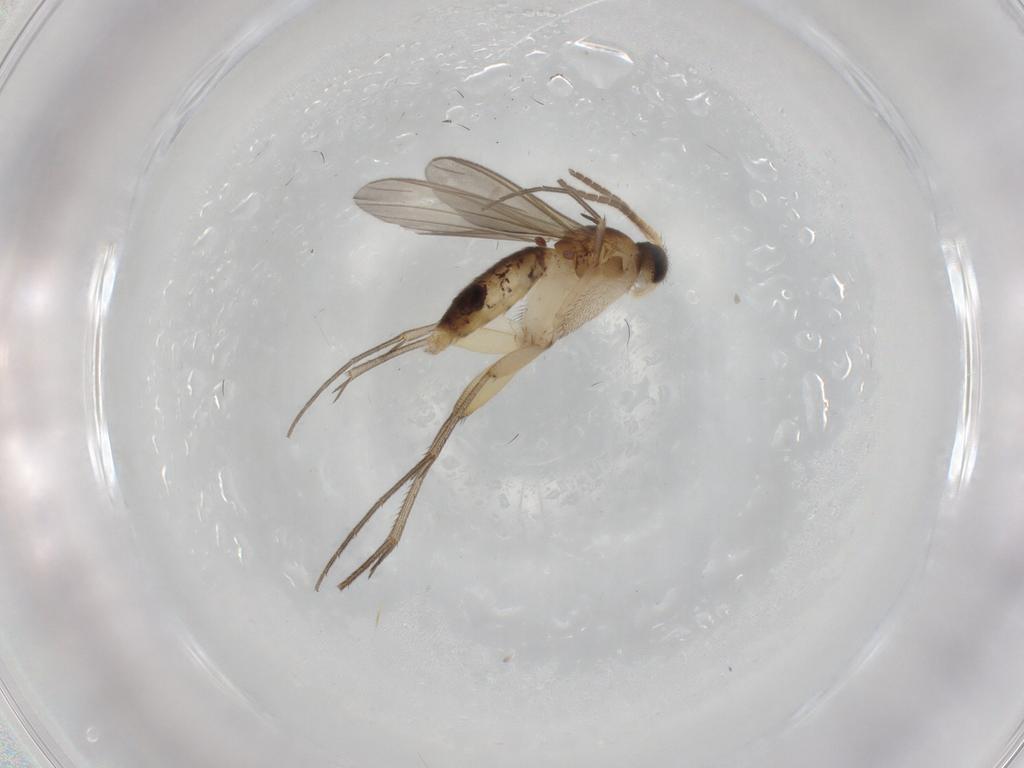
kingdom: Animalia
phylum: Arthropoda
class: Insecta
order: Diptera
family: Mycetophilidae
